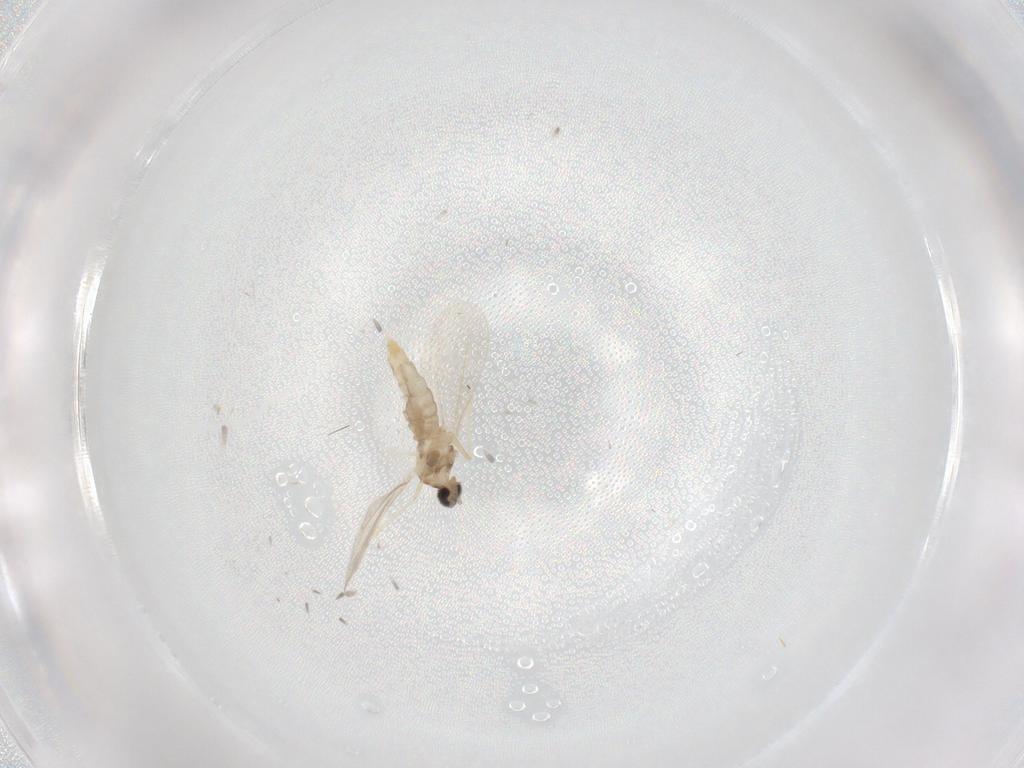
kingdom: Animalia
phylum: Arthropoda
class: Insecta
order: Diptera
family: Cecidomyiidae
